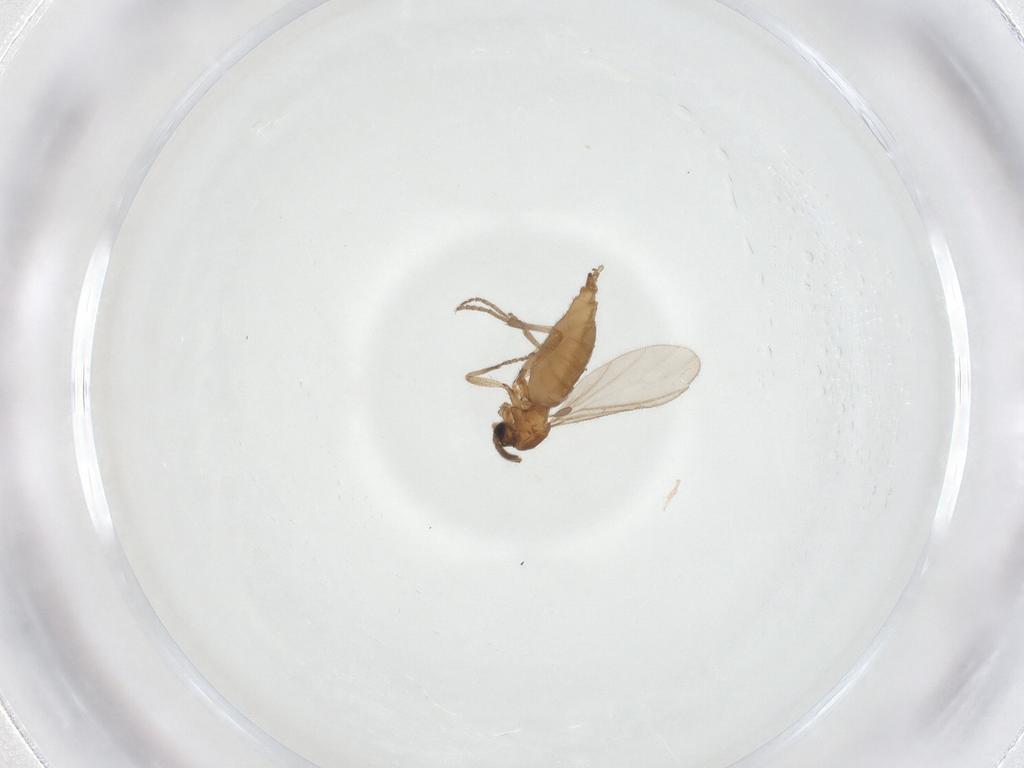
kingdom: Animalia
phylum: Arthropoda
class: Insecta
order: Diptera
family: Sciaridae
